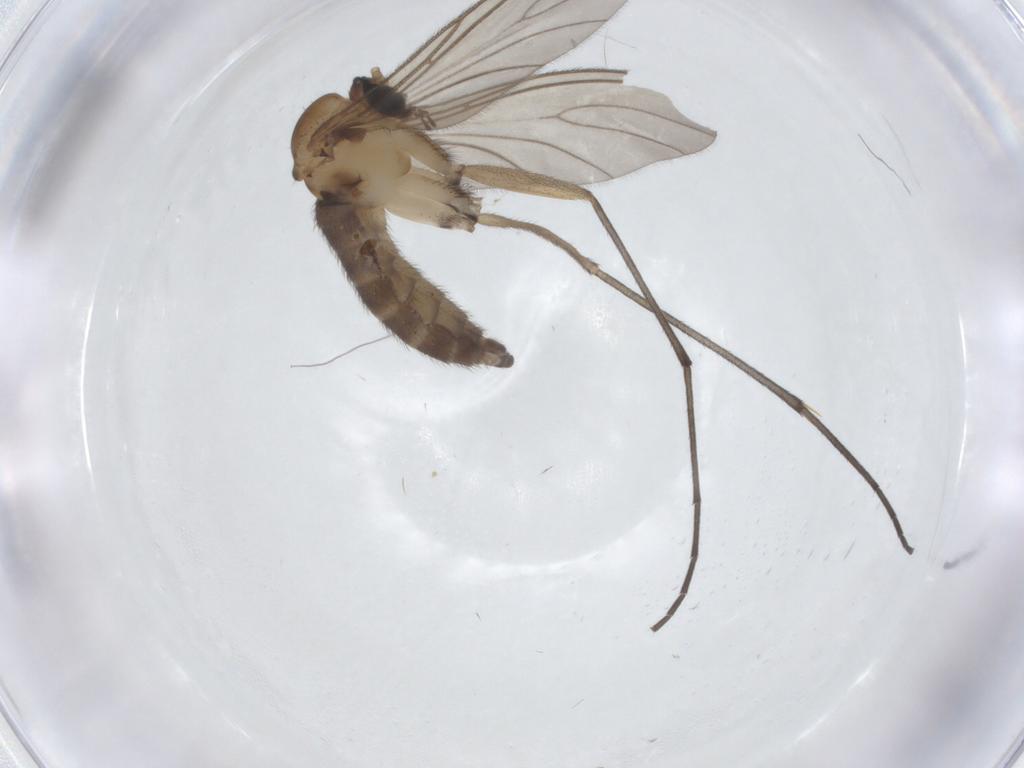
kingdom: Animalia
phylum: Arthropoda
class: Insecta
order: Diptera
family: Sciaridae
